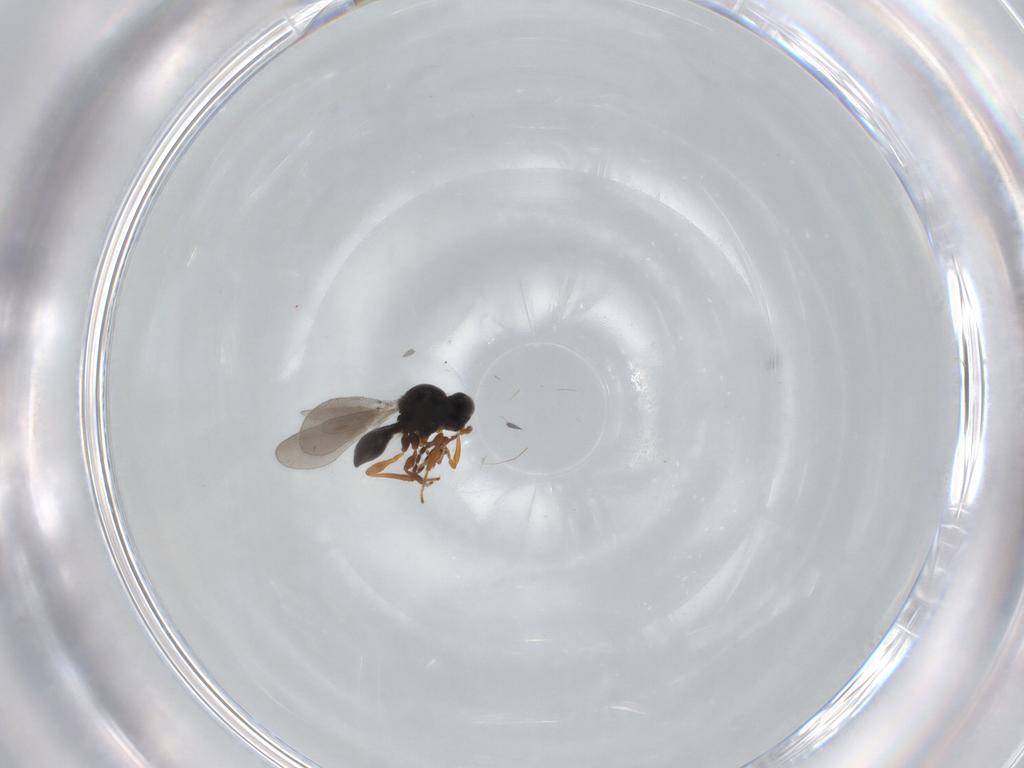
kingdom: Animalia
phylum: Arthropoda
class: Insecta
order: Hymenoptera
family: Platygastridae
